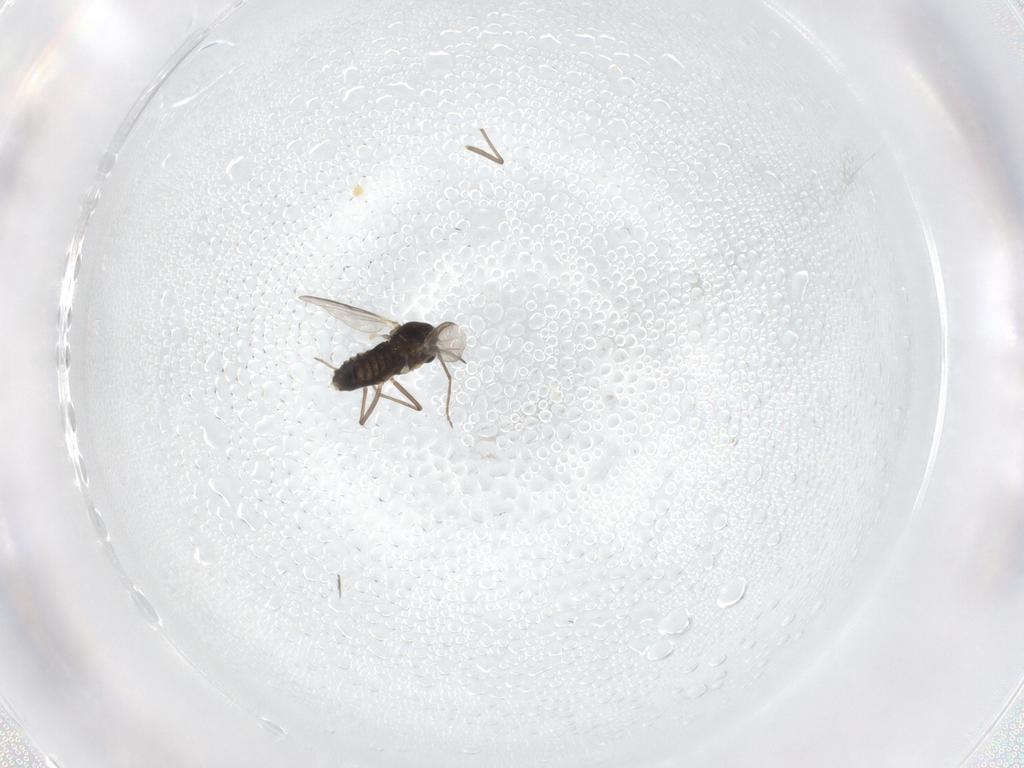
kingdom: Animalia
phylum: Arthropoda
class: Insecta
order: Diptera
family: Chironomidae
